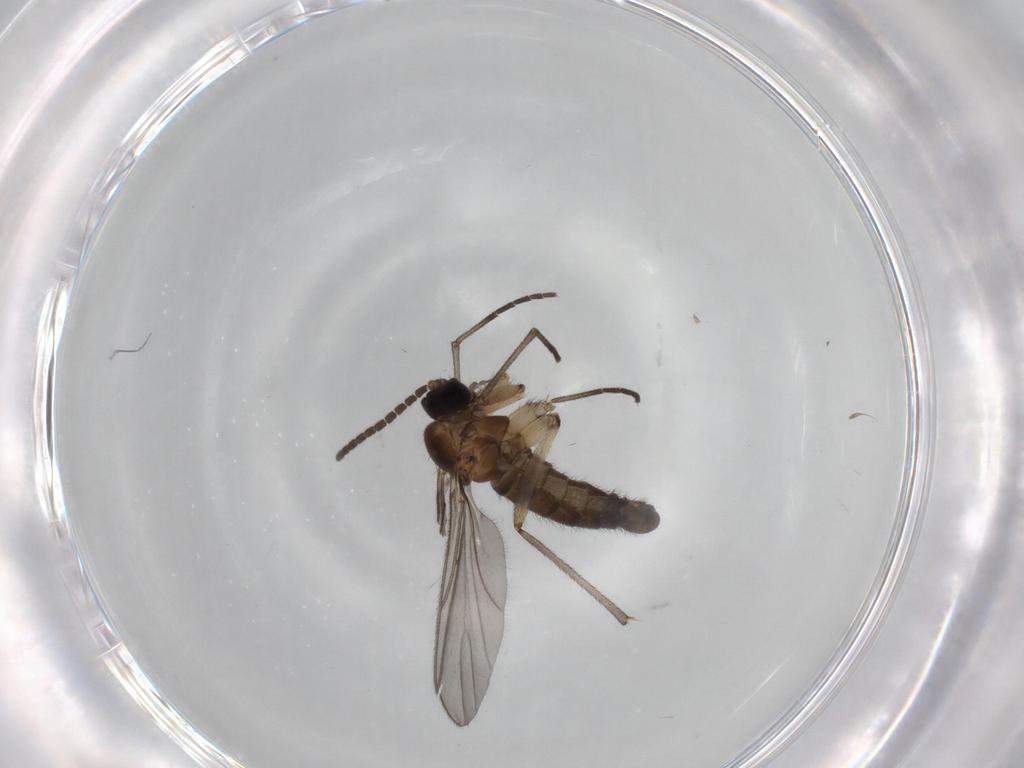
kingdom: Animalia
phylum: Arthropoda
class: Insecta
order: Diptera
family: Sciaridae
